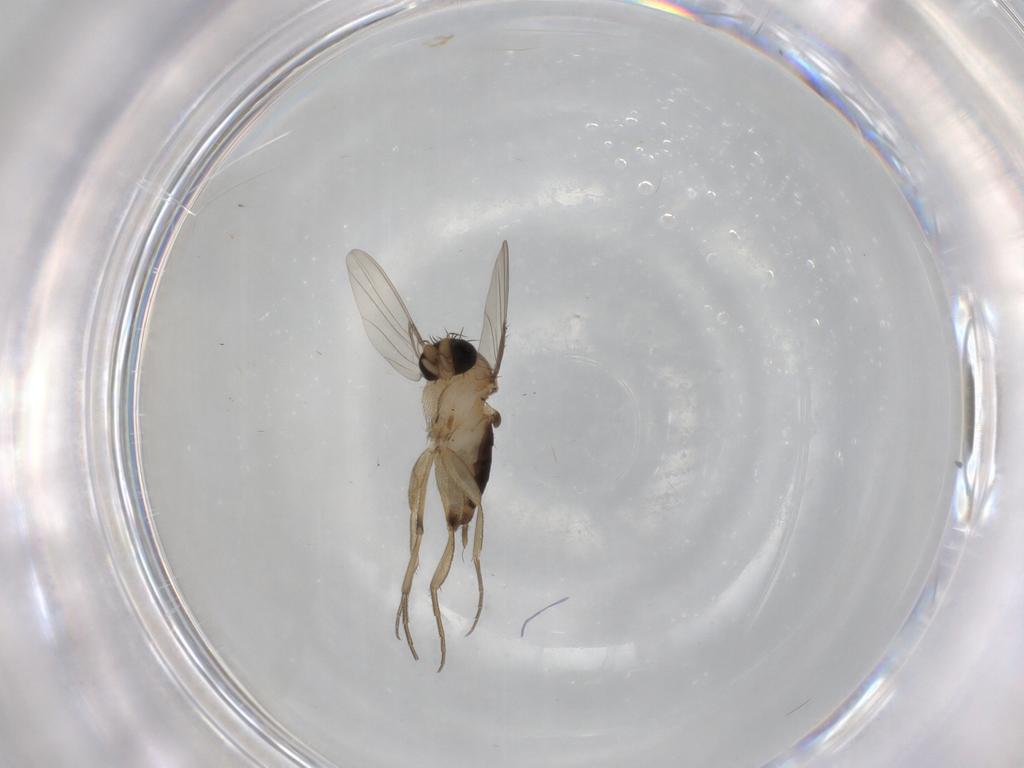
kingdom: Animalia
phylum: Arthropoda
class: Insecta
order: Diptera
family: Phoridae
